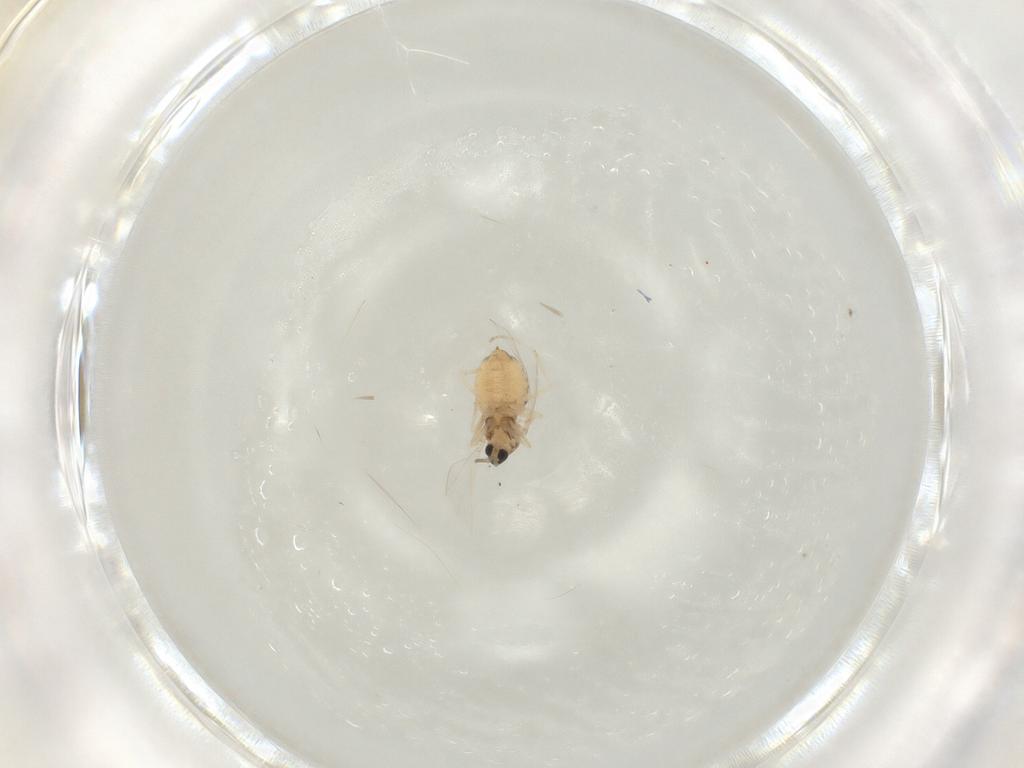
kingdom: Animalia
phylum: Arthropoda
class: Insecta
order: Diptera
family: Cecidomyiidae
